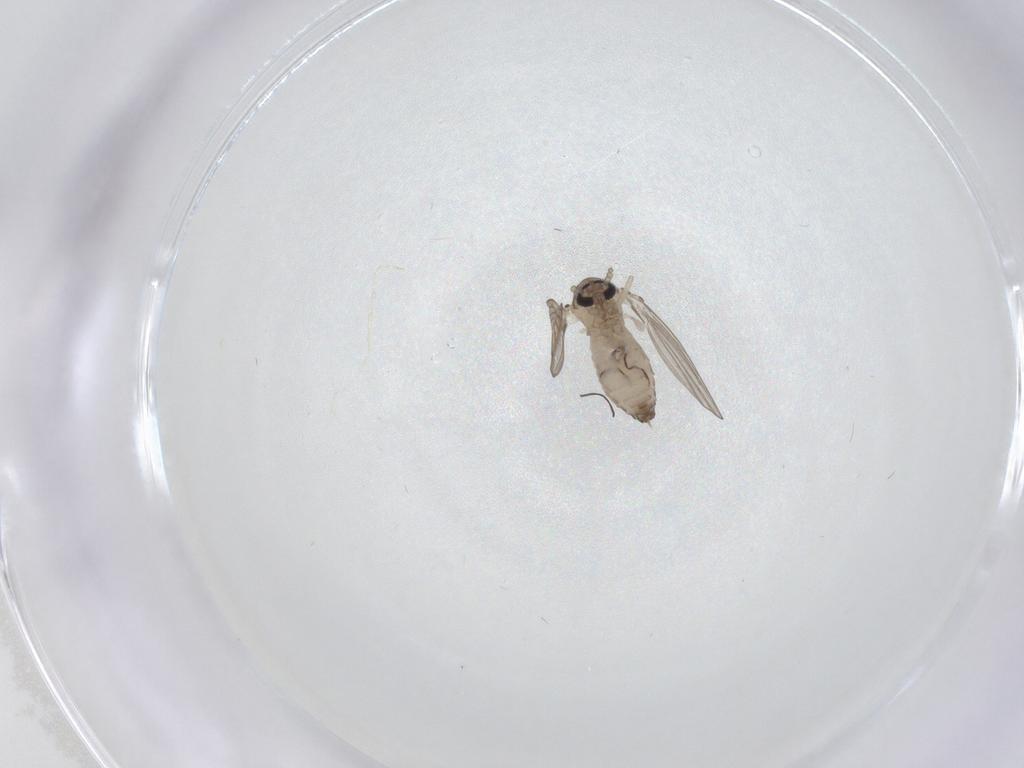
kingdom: Animalia
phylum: Arthropoda
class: Insecta
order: Diptera
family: Psychodidae
